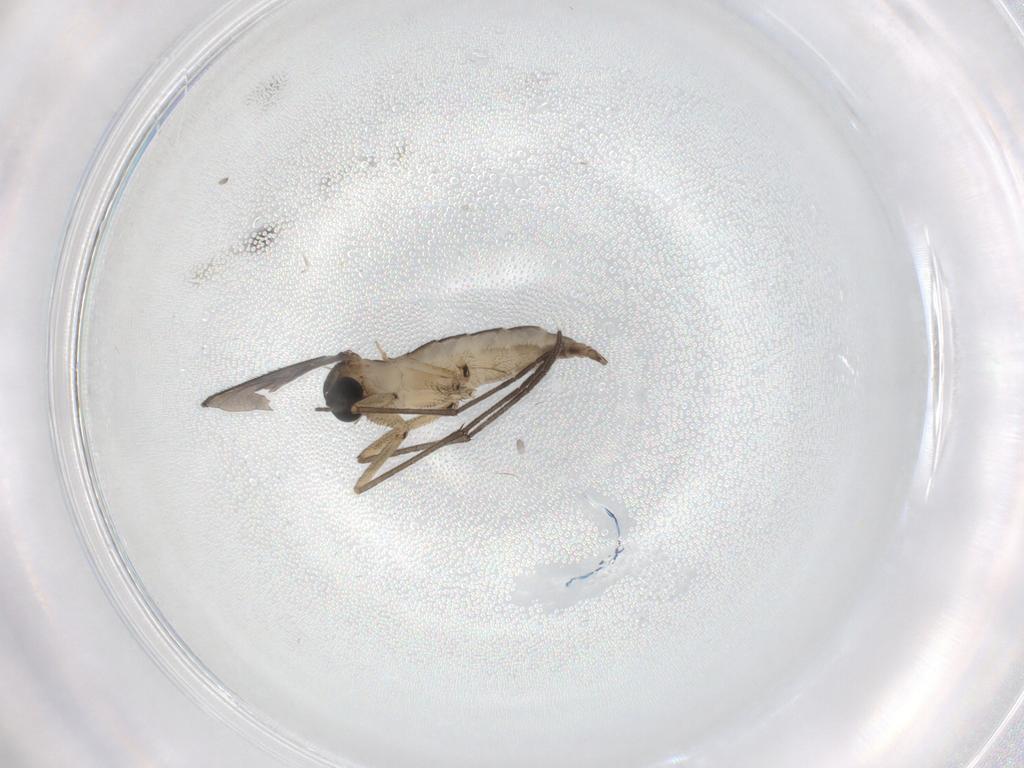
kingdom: Animalia
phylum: Arthropoda
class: Insecta
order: Diptera
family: Sciaridae
